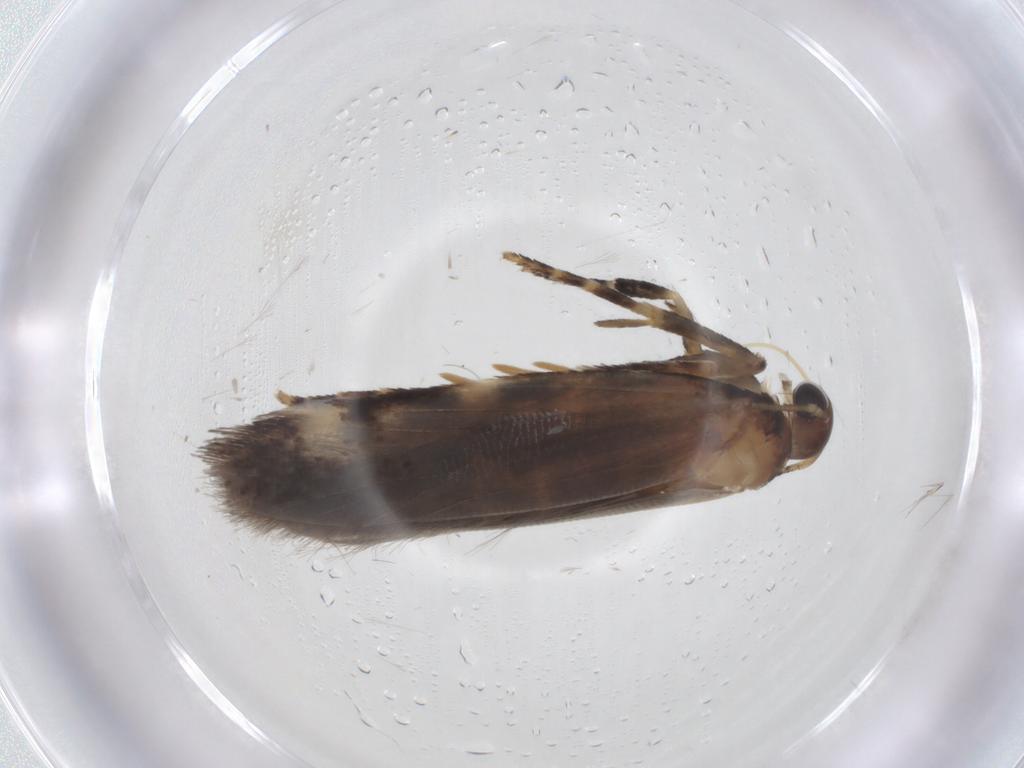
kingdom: Animalia
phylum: Arthropoda
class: Insecta
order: Lepidoptera
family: Gelechiidae
